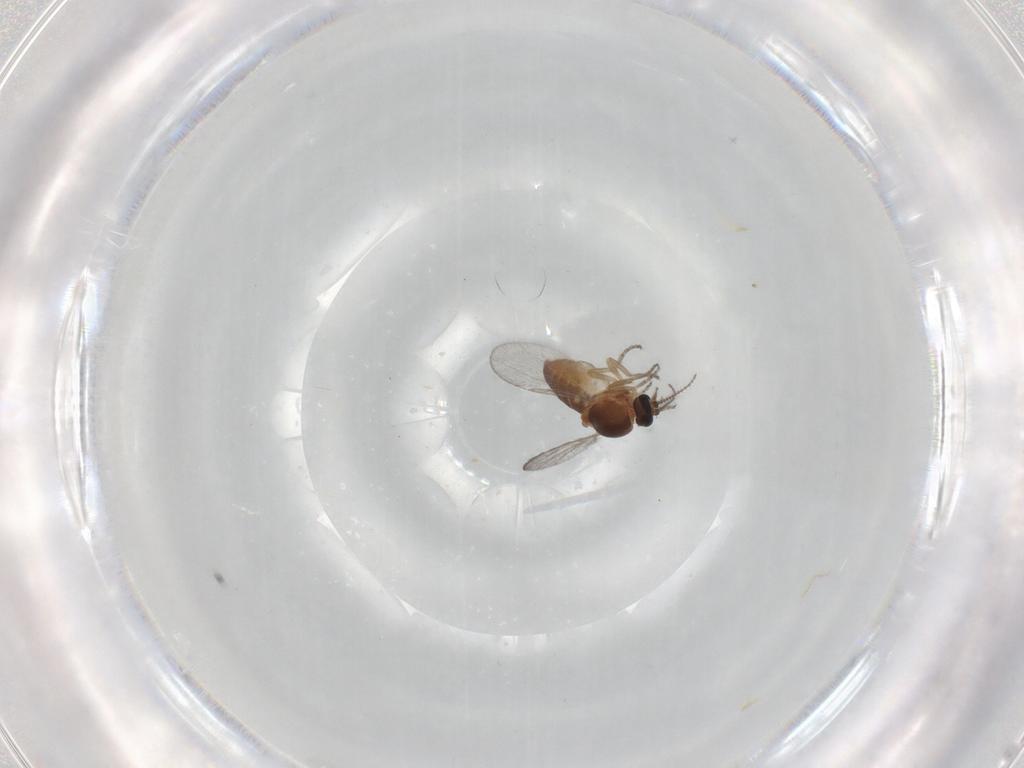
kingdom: Animalia
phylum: Arthropoda
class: Insecta
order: Diptera
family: Ceratopogonidae
